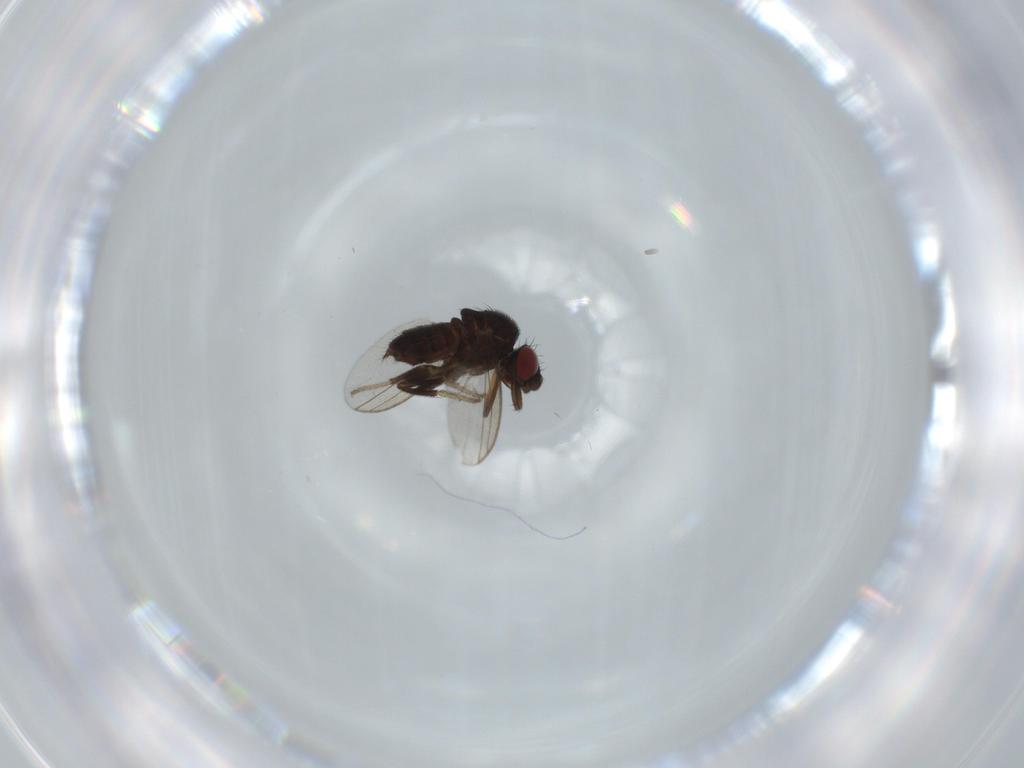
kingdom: Animalia
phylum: Arthropoda
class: Insecta
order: Diptera
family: Milichiidae
